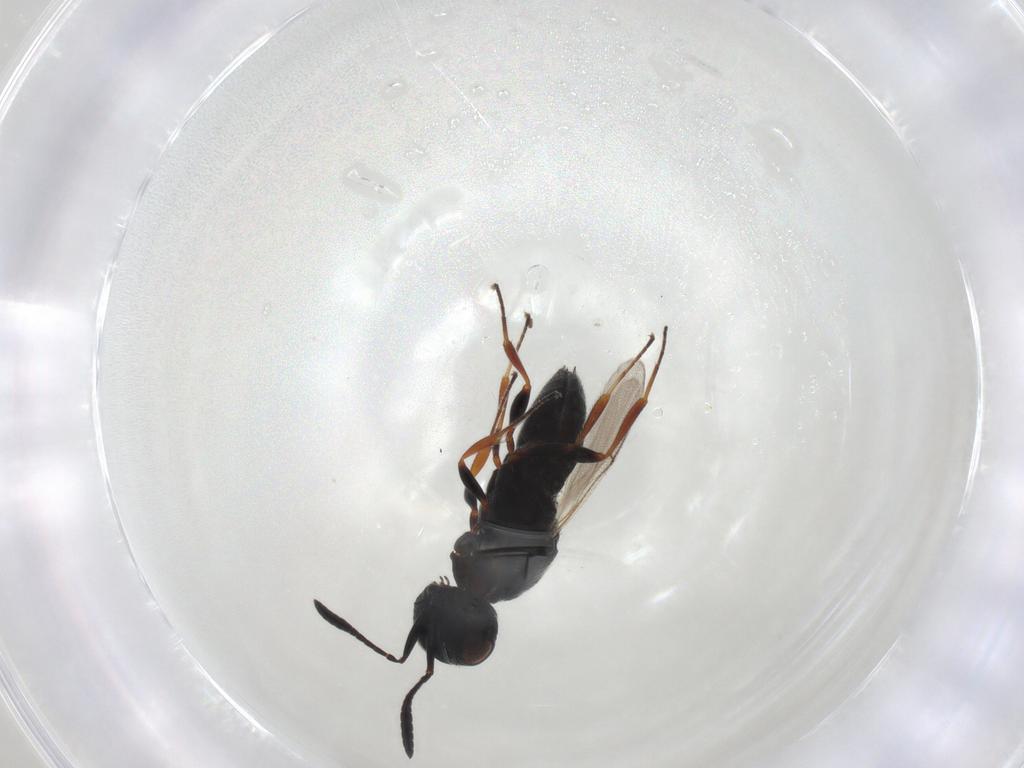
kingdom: Animalia
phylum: Arthropoda
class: Insecta
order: Hymenoptera
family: Scelionidae
